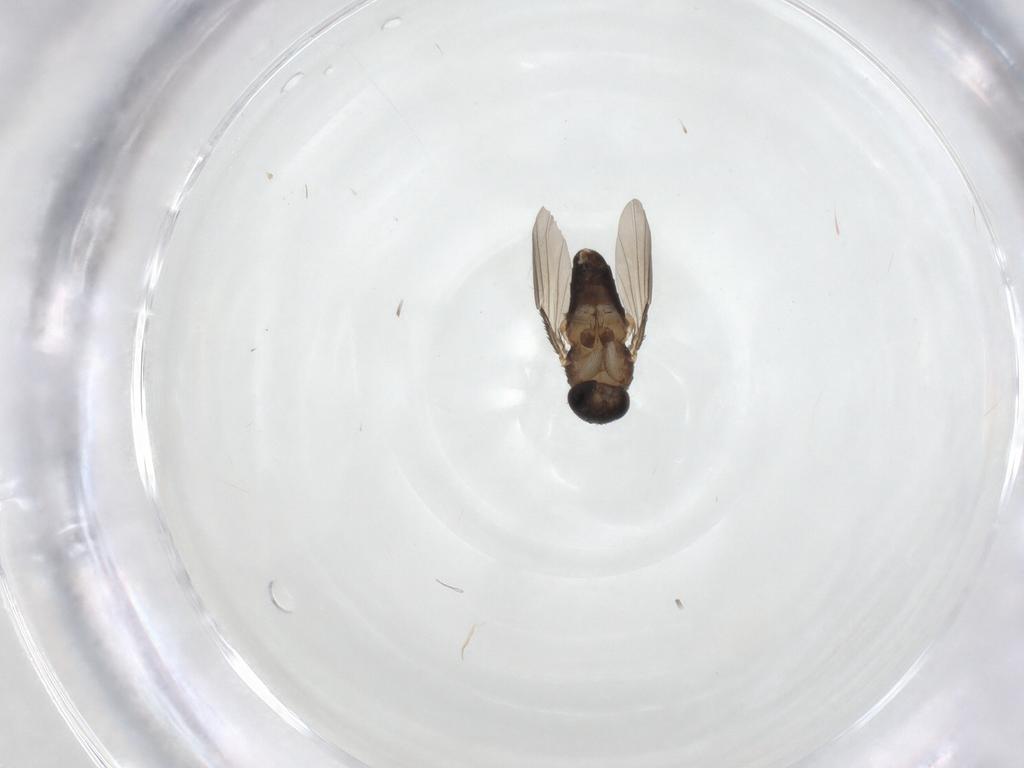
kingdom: Animalia
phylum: Arthropoda
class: Insecta
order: Diptera
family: Phoridae
